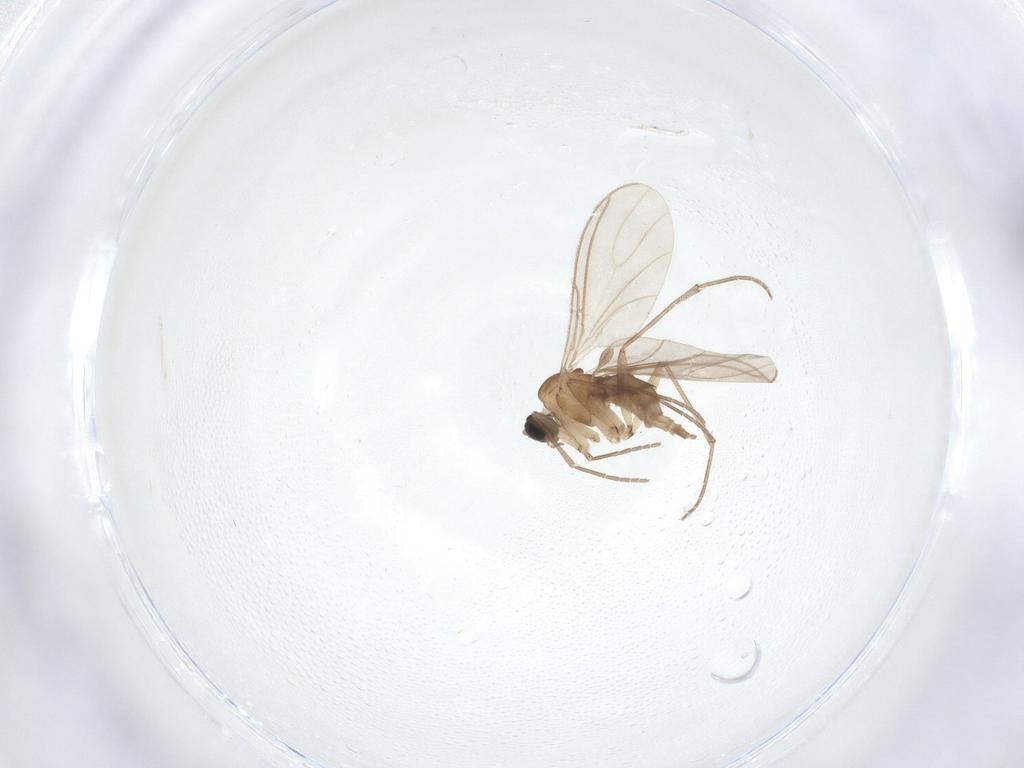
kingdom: Animalia
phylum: Arthropoda
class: Insecta
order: Diptera
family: Sciaridae
